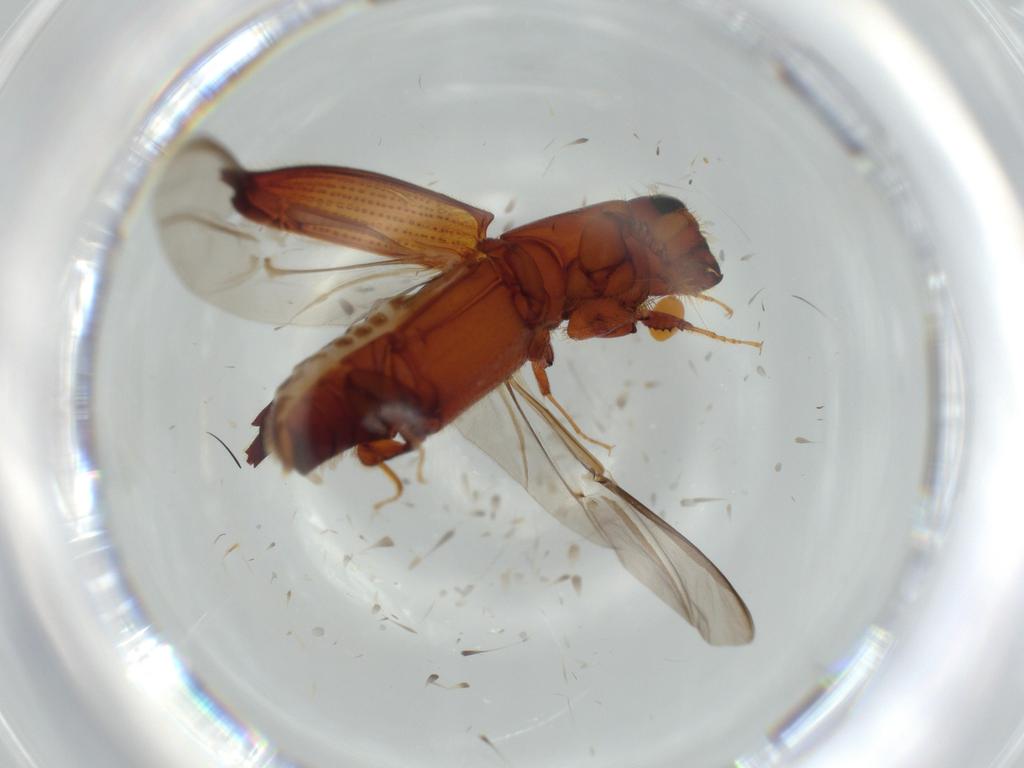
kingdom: Animalia
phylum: Arthropoda
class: Insecta
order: Coleoptera
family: Curculionidae
